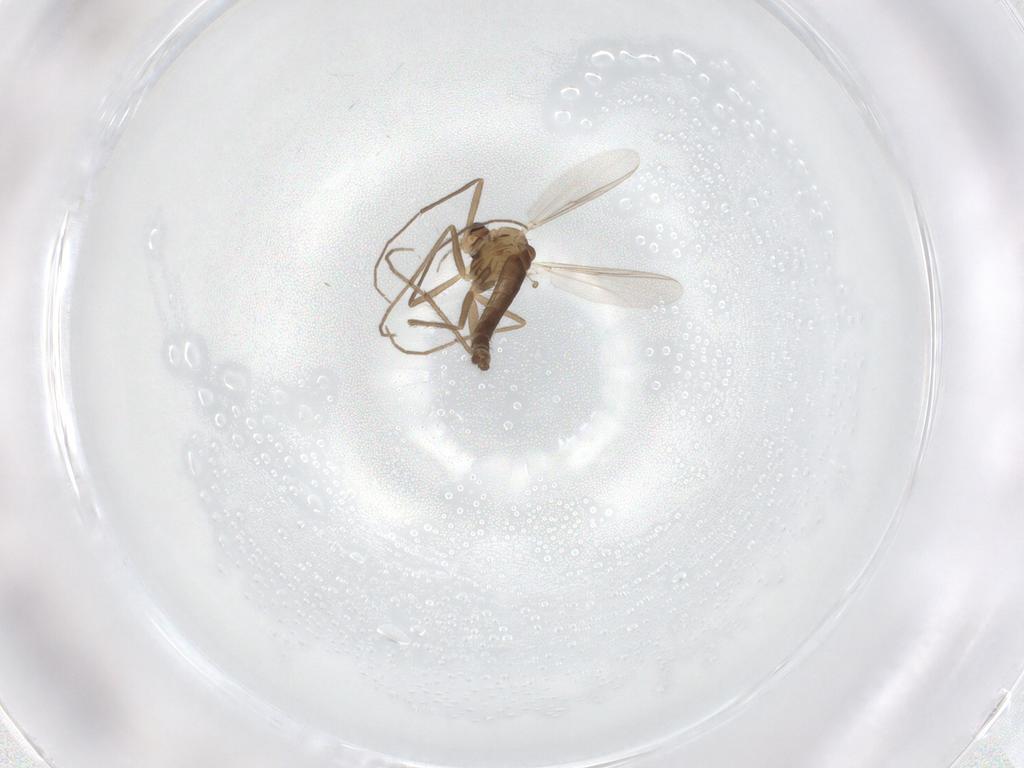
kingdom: Animalia
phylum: Arthropoda
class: Insecta
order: Diptera
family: Chironomidae
